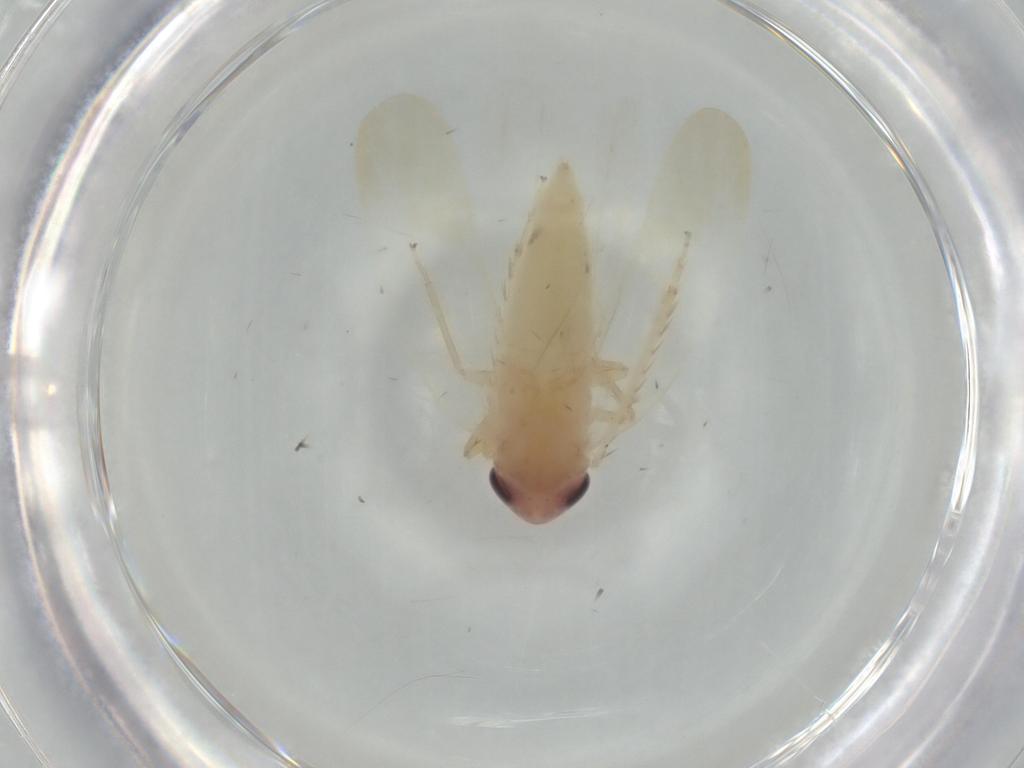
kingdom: Animalia
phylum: Arthropoda
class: Insecta
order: Hemiptera
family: Cicadellidae
